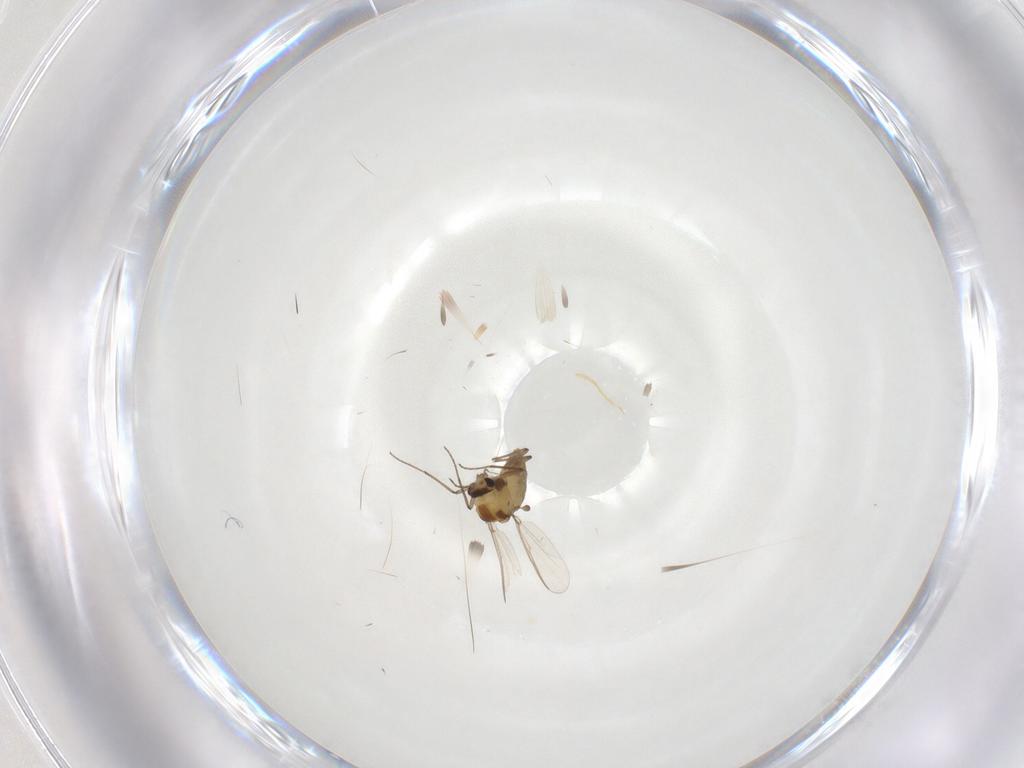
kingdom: Animalia
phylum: Arthropoda
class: Insecta
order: Diptera
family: Chironomidae
